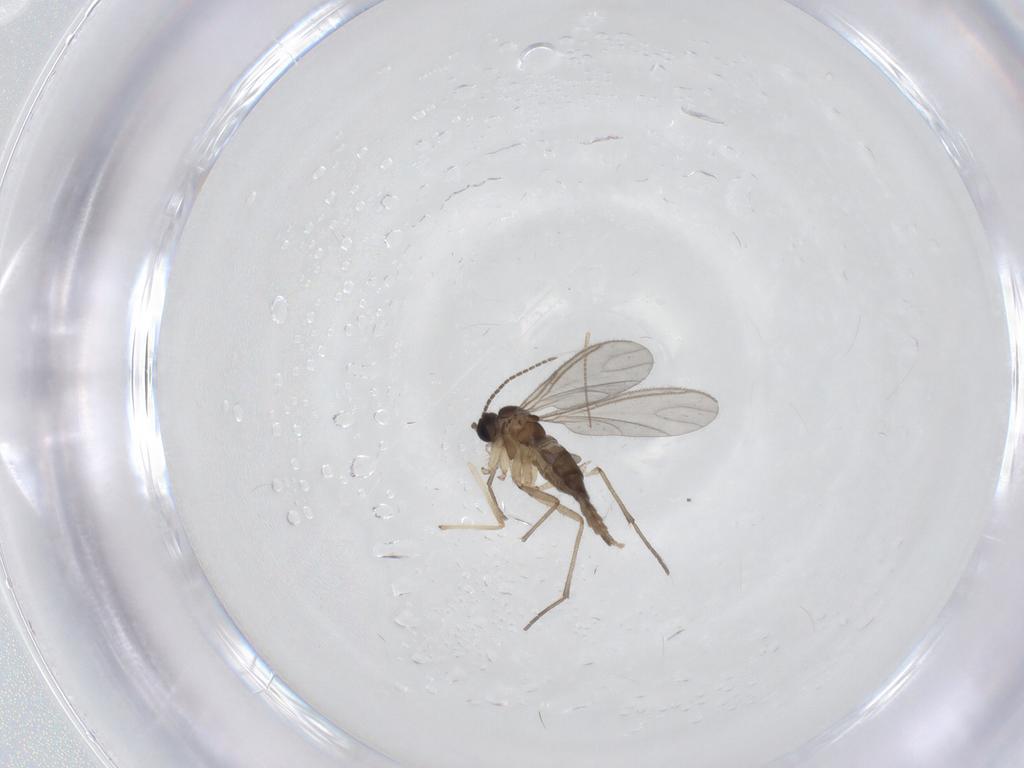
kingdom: Animalia
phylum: Arthropoda
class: Insecta
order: Diptera
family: Sciaridae
